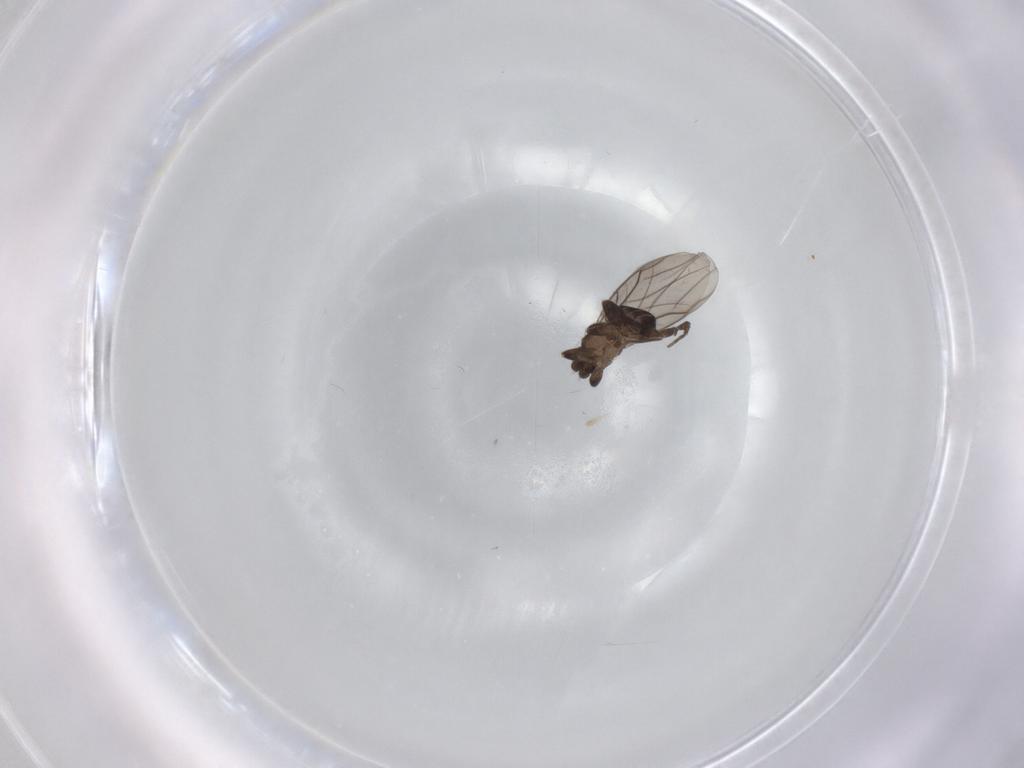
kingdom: Animalia
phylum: Arthropoda
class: Insecta
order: Diptera
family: Phoridae
